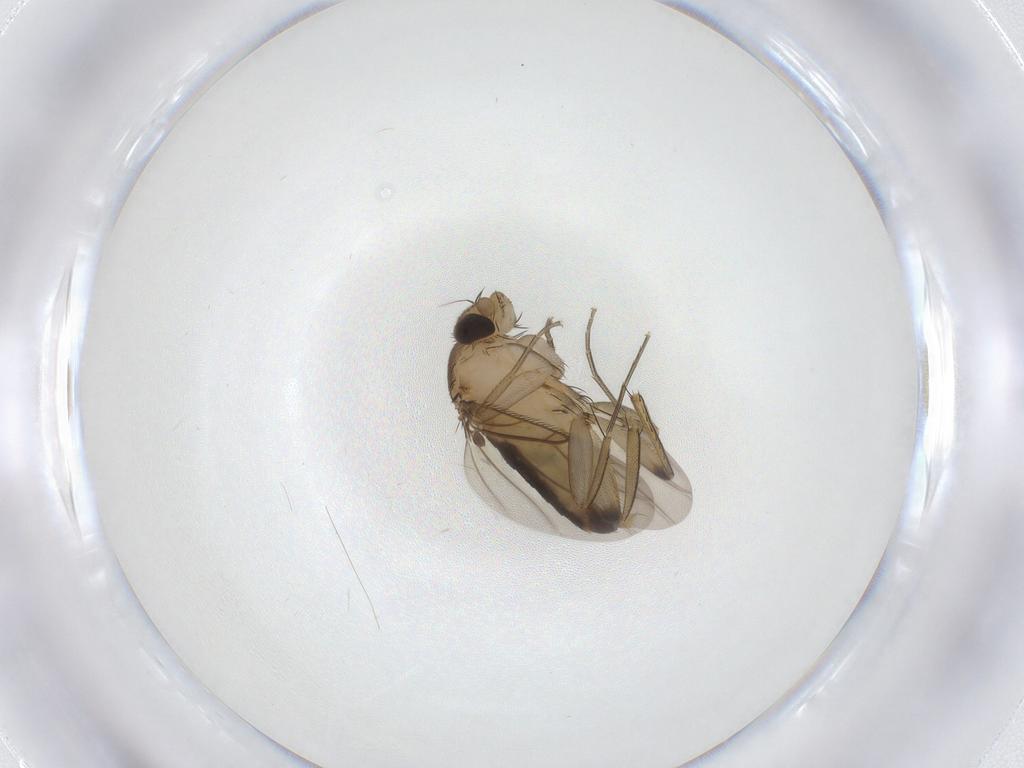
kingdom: Animalia
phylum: Arthropoda
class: Insecta
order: Diptera
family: Phoridae
